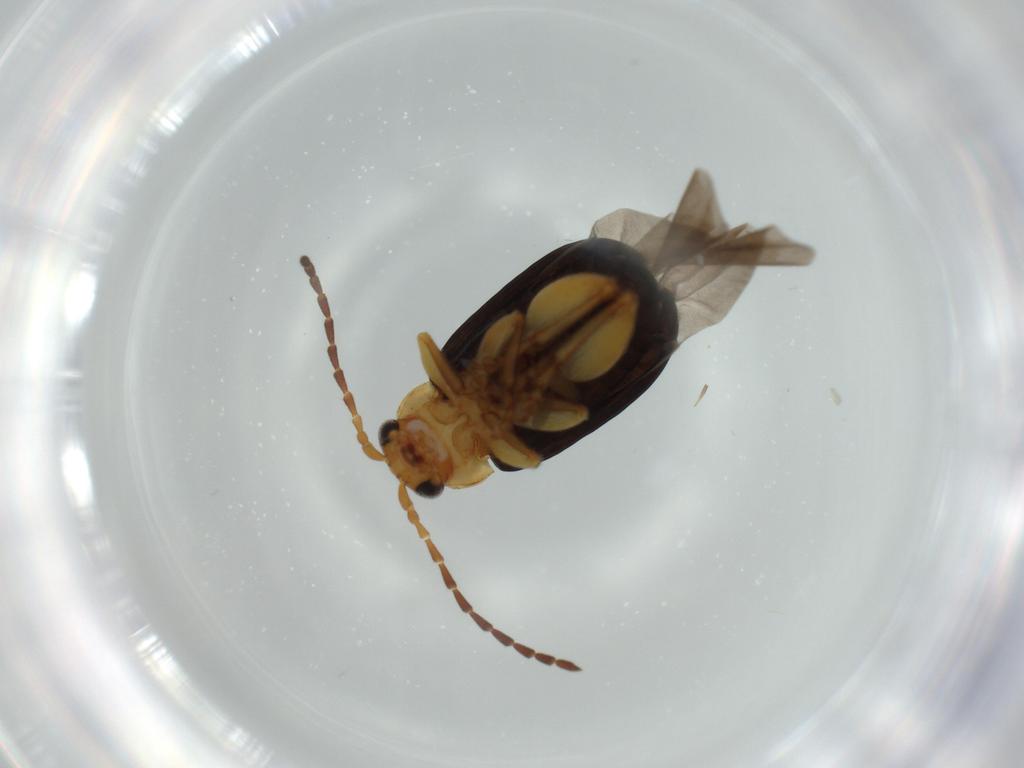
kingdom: Animalia
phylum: Arthropoda
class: Insecta
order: Coleoptera
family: Chrysomelidae
